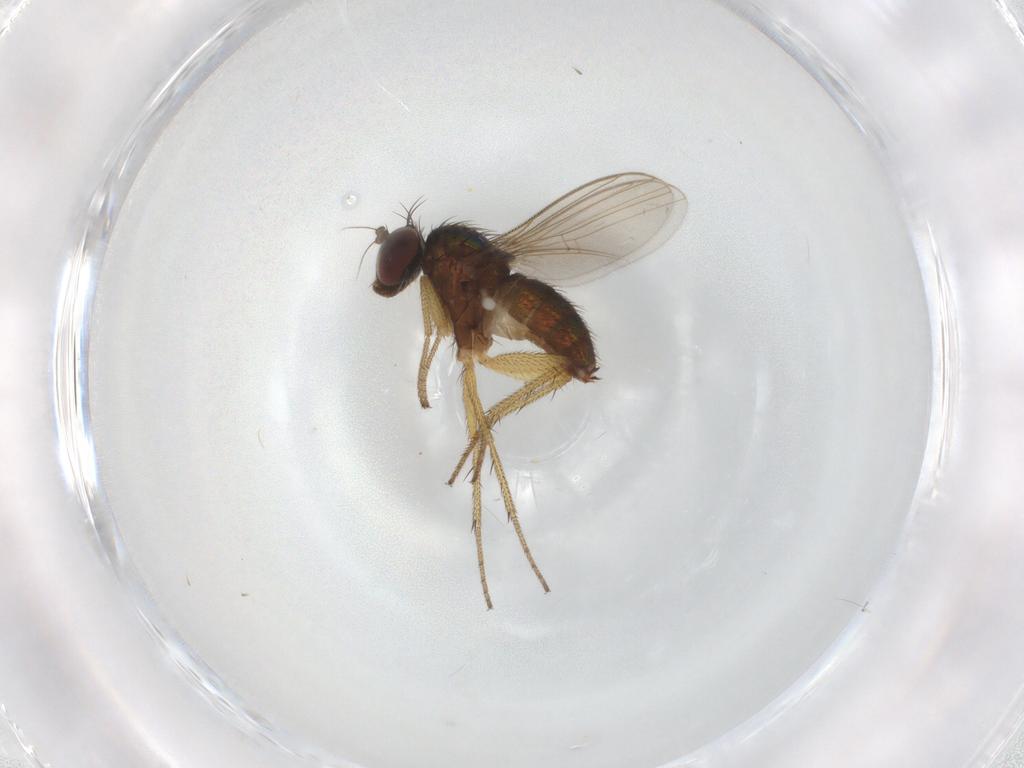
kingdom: Animalia
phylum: Arthropoda
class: Insecta
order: Diptera
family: Dolichopodidae
